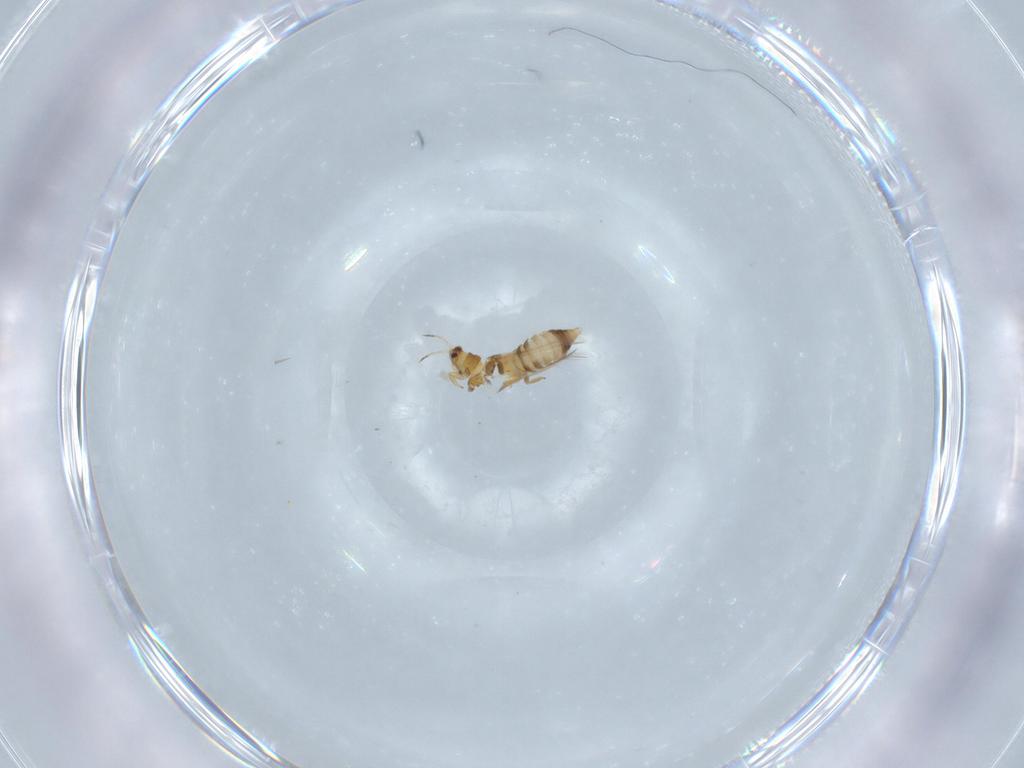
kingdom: Animalia
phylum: Arthropoda
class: Insecta
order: Thysanoptera
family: Thripidae
